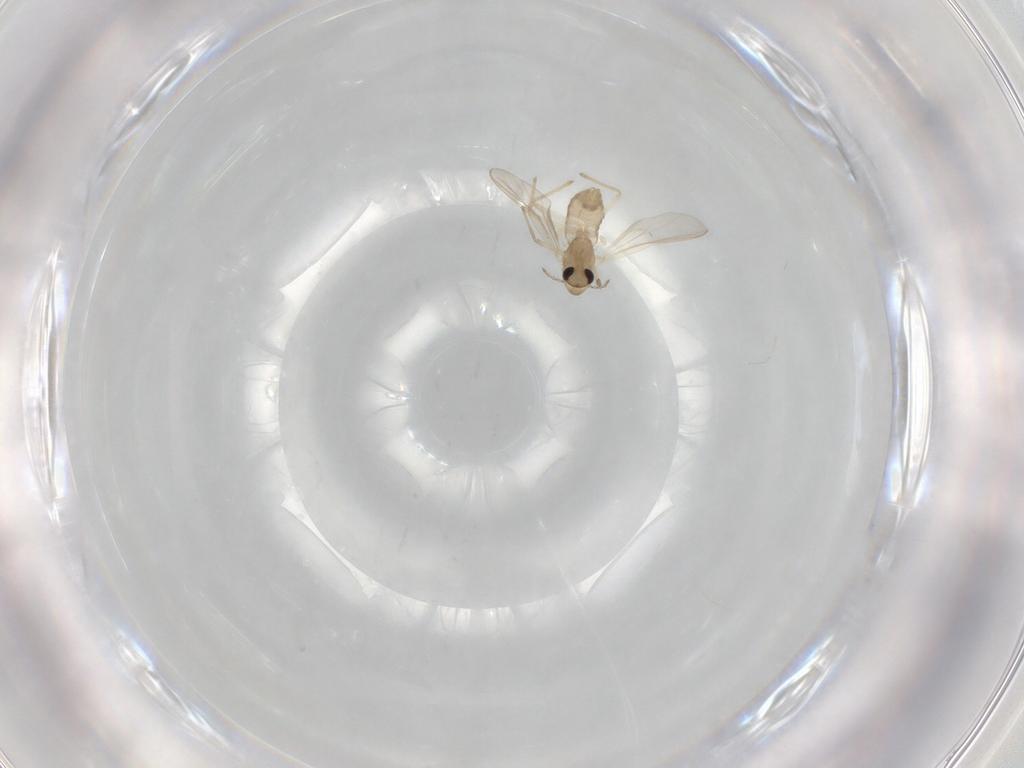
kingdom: Animalia
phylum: Arthropoda
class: Insecta
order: Diptera
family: Chironomidae
